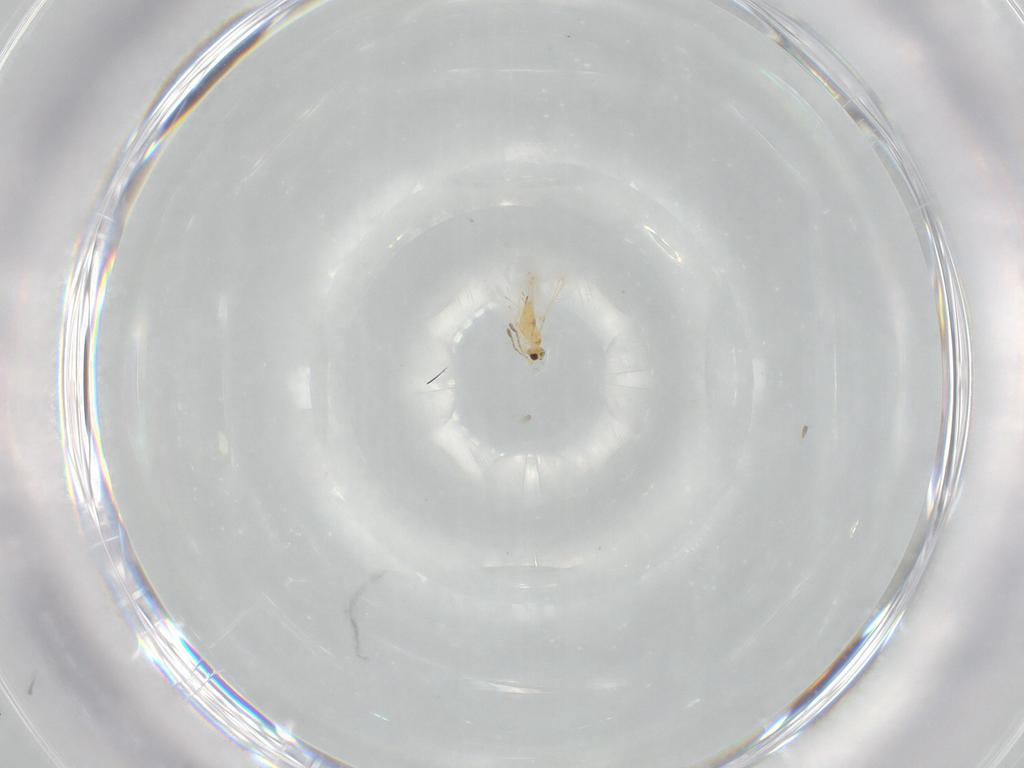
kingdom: Animalia
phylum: Arthropoda
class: Insecta
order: Hymenoptera
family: Mymaridae
